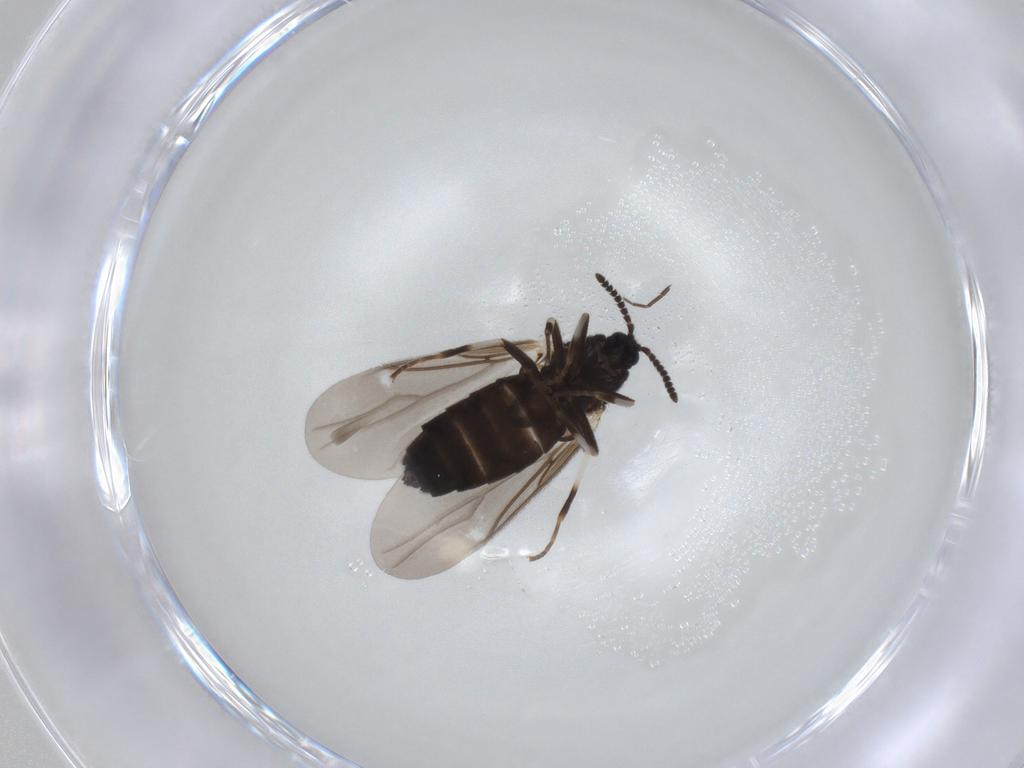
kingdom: Animalia
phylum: Arthropoda
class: Insecta
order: Diptera
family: Scatopsidae
